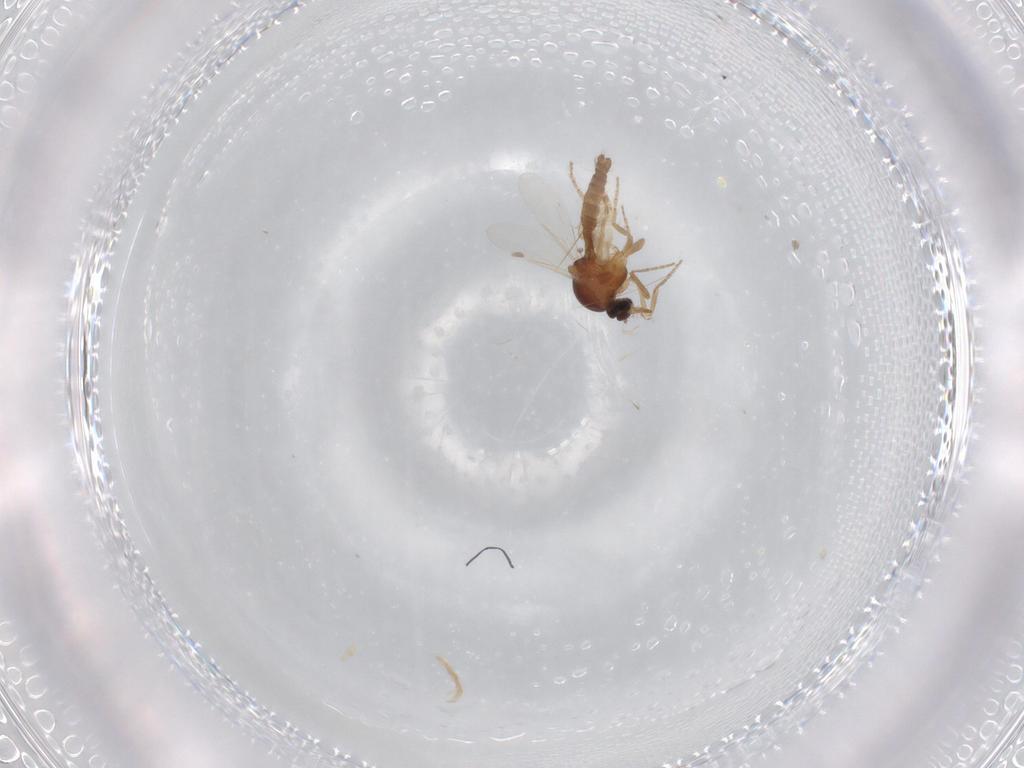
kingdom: Animalia
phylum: Arthropoda
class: Insecta
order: Diptera
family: Ceratopogonidae
